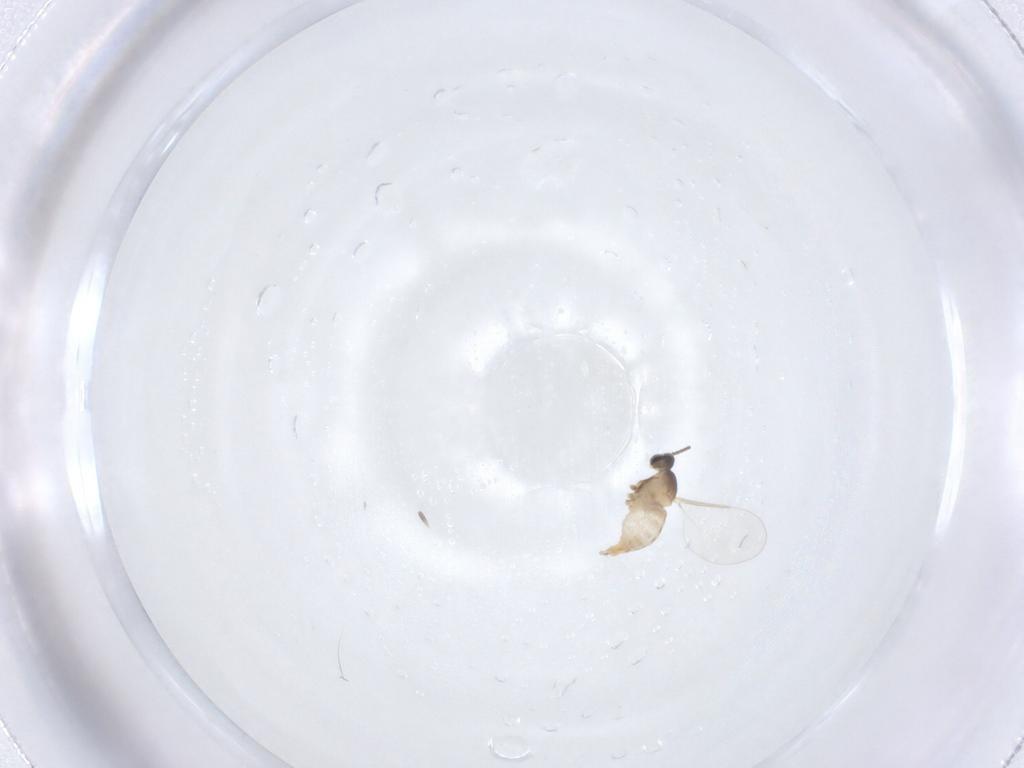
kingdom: Animalia
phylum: Arthropoda
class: Insecta
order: Diptera
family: Cecidomyiidae
